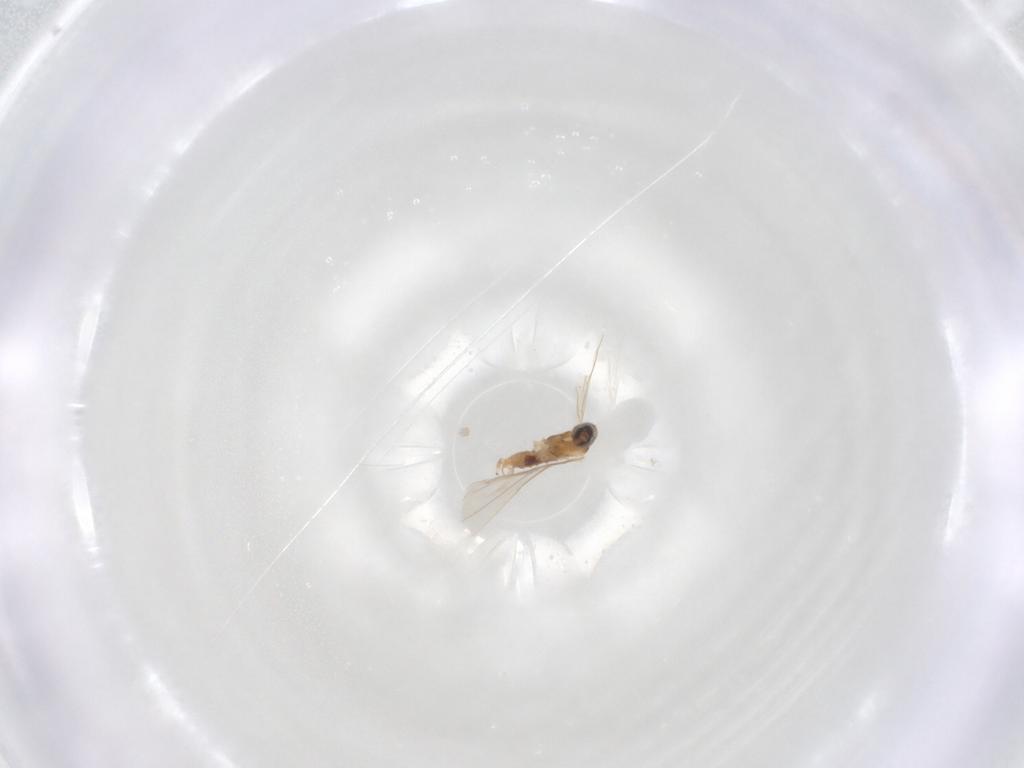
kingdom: Animalia
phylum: Arthropoda
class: Insecta
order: Diptera
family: Cecidomyiidae
